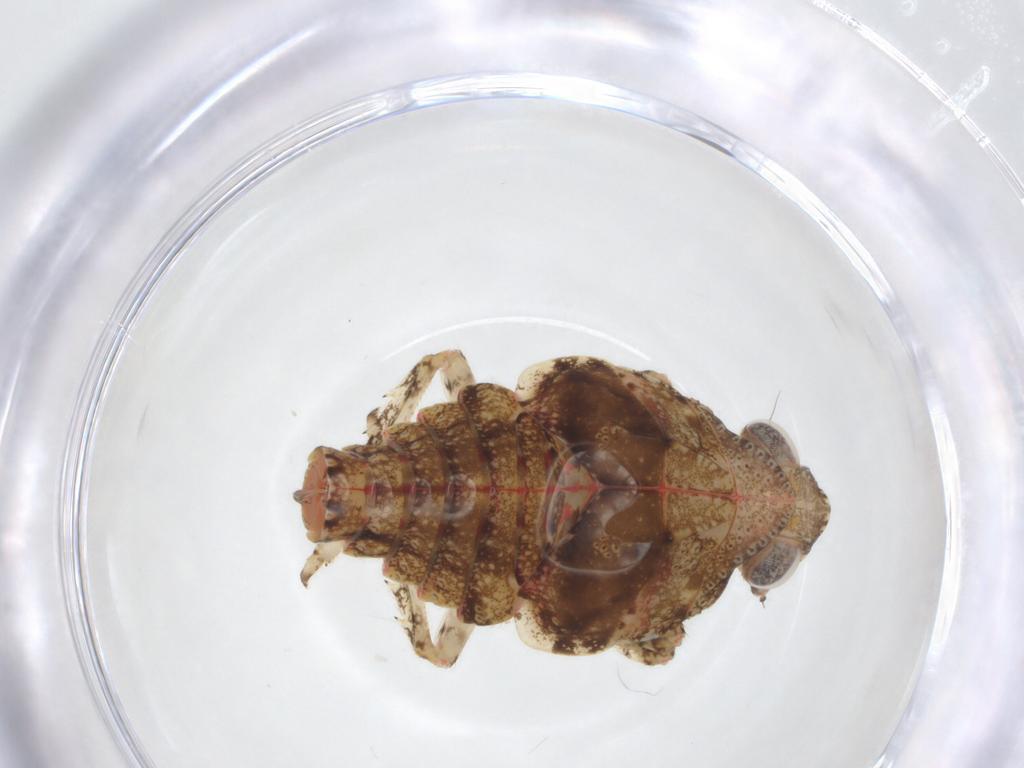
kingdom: Animalia
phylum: Arthropoda
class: Insecta
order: Hemiptera
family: Nogodinidae
